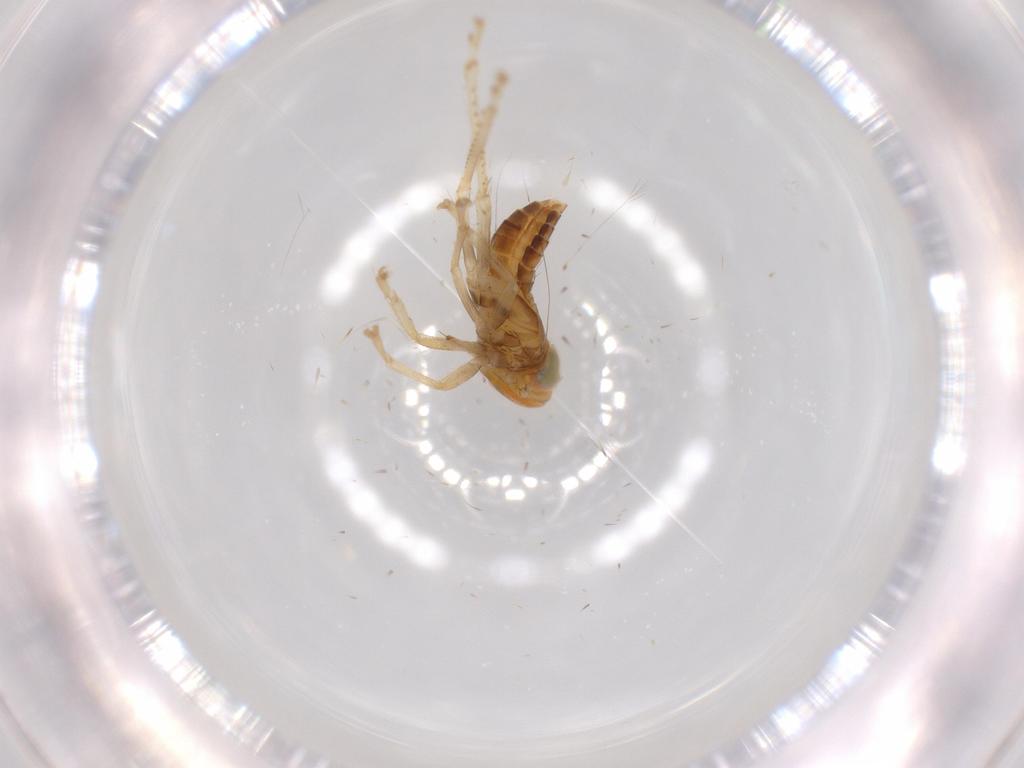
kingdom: Animalia
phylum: Arthropoda
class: Insecta
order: Hemiptera
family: Cicadellidae
